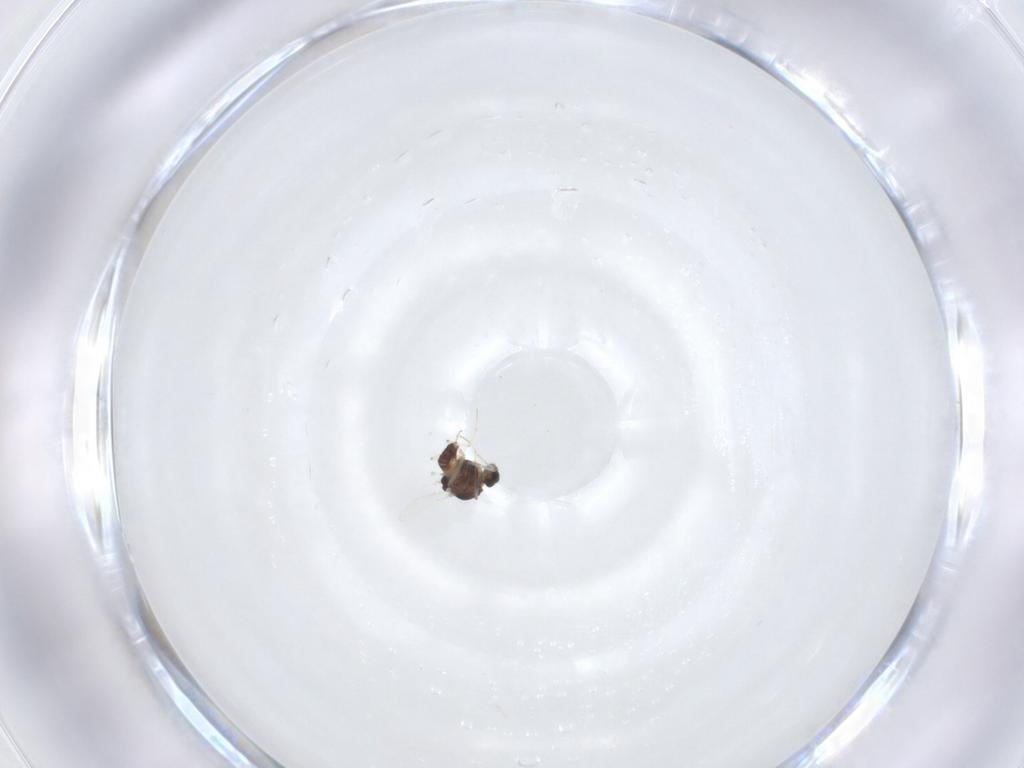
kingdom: Animalia
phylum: Arthropoda
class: Insecta
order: Diptera
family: Chironomidae
